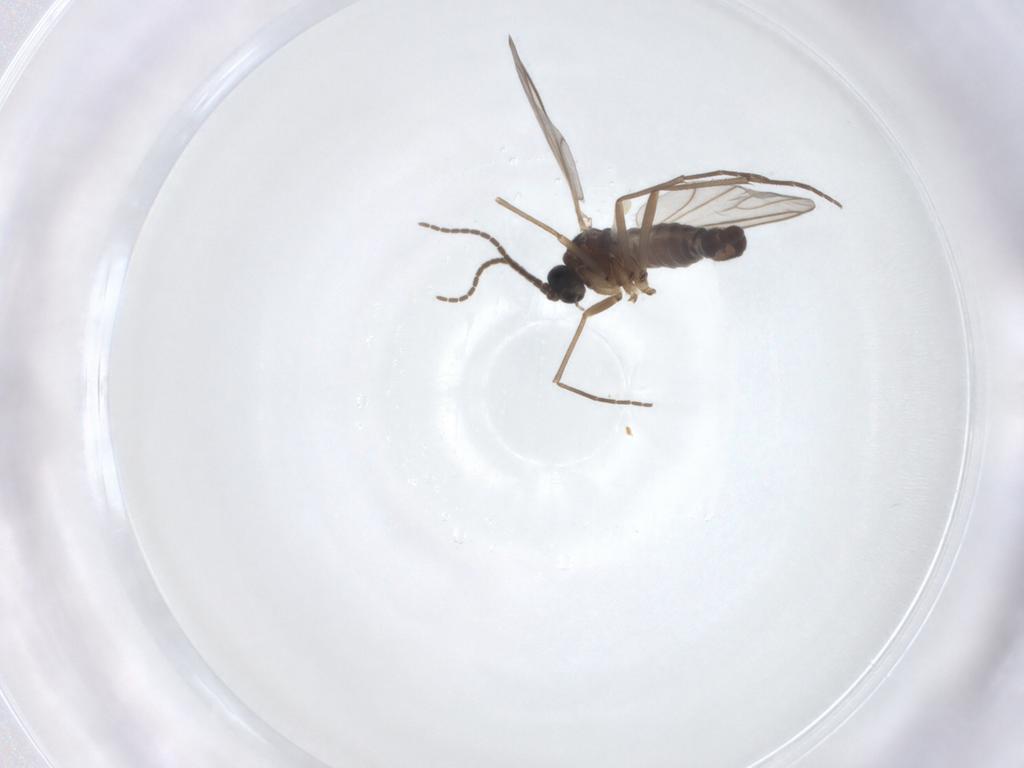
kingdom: Animalia
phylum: Arthropoda
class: Insecta
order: Diptera
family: Sciaridae
